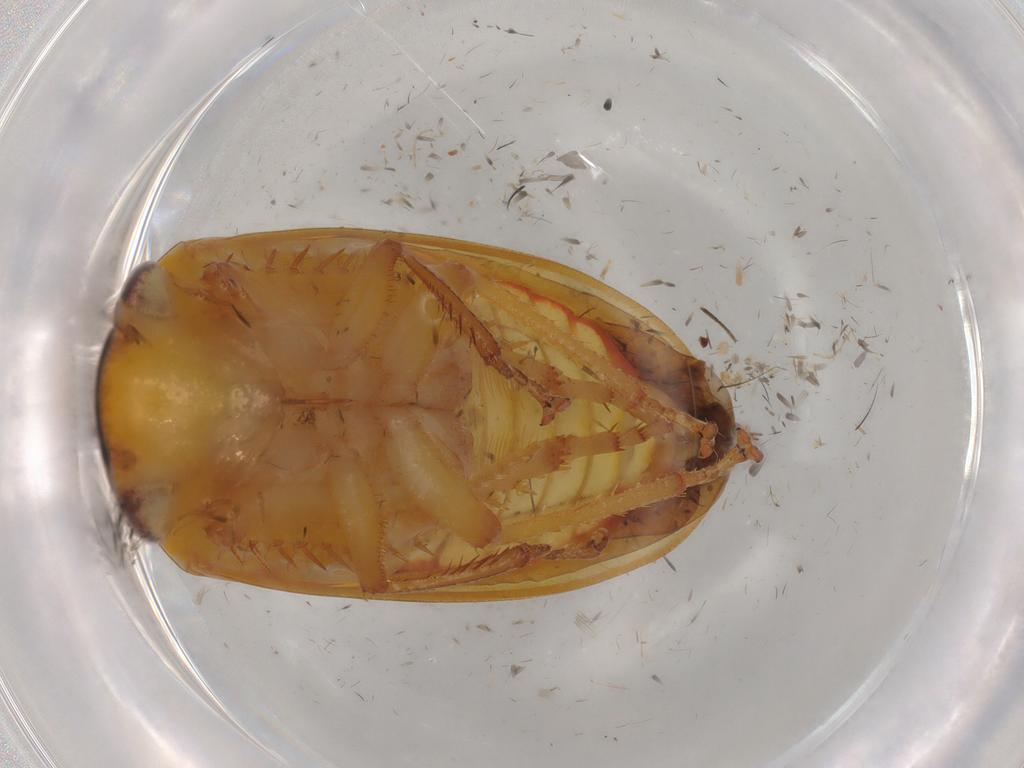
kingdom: Animalia
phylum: Arthropoda
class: Insecta
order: Hemiptera
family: Cicadellidae
